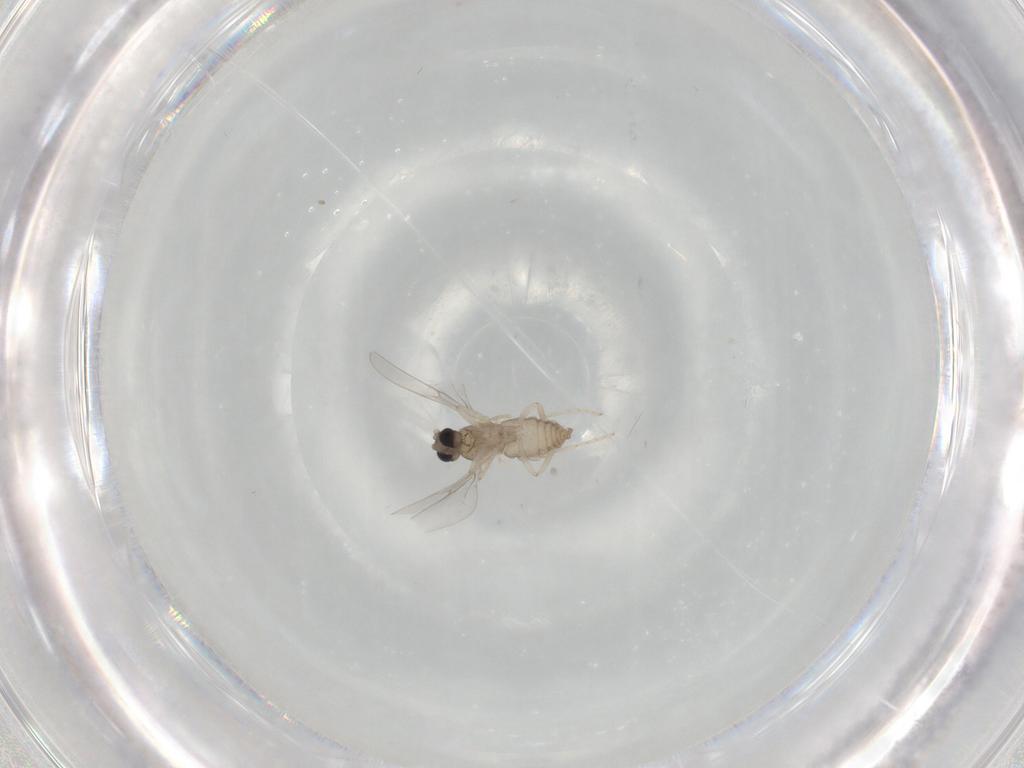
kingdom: Animalia
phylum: Arthropoda
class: Insecta
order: Diptera
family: Cecidomyiidae
